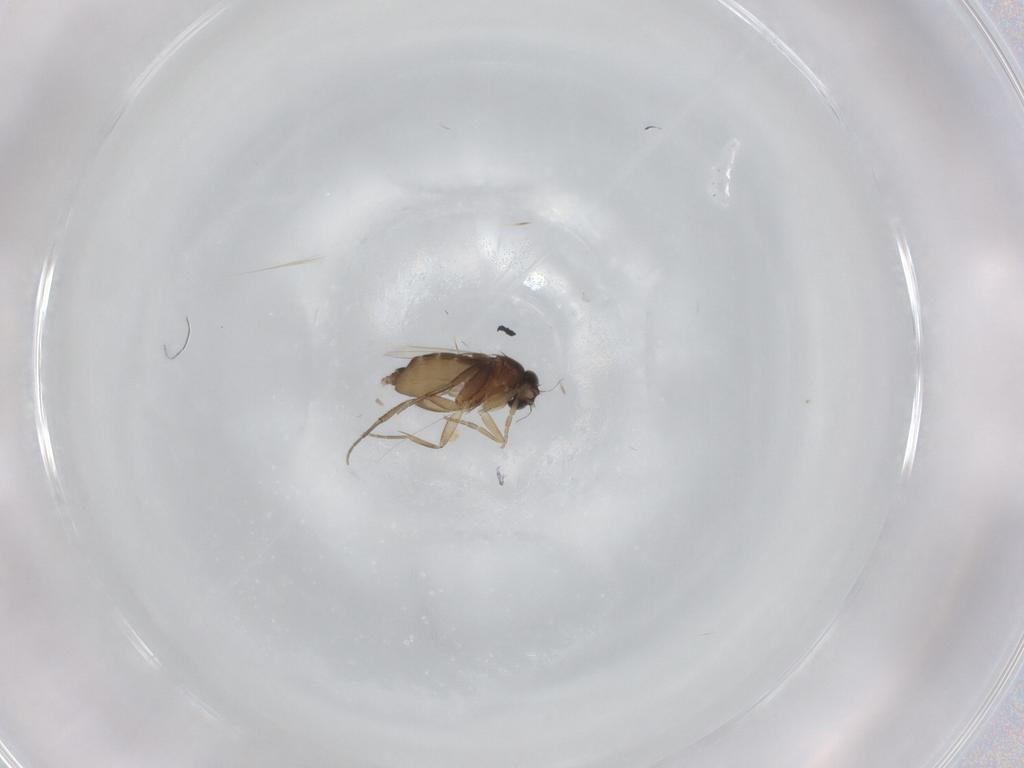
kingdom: Animalia
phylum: Arthropoda
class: Insecta
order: Diptera
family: Phoridae
